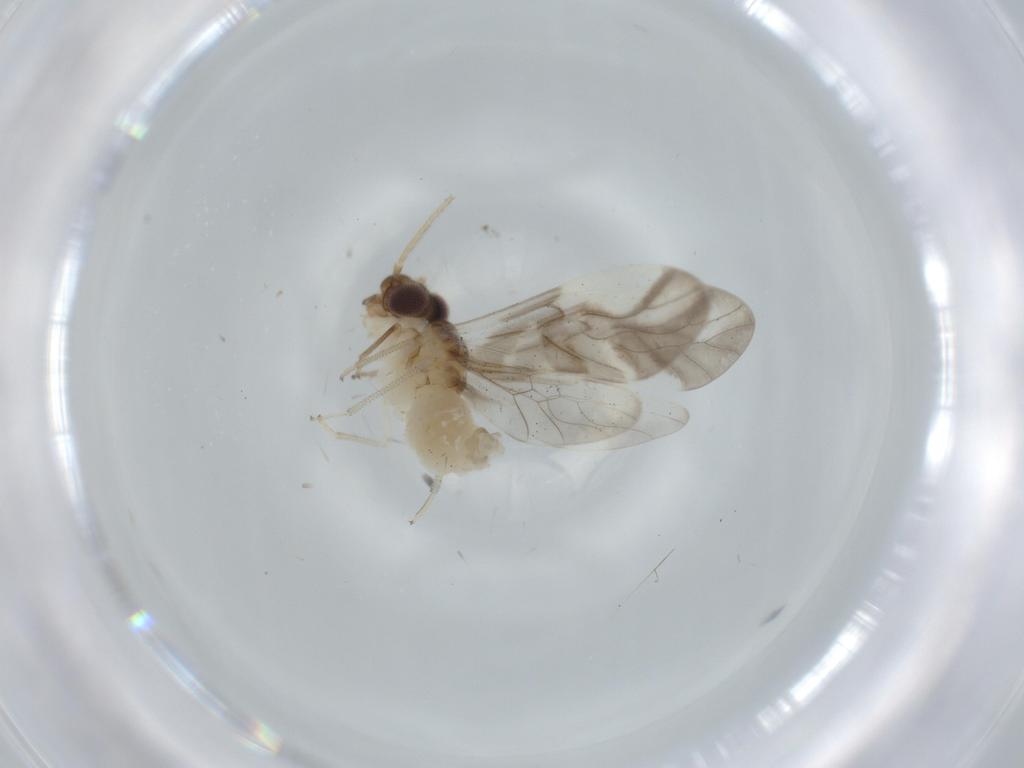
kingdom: Animalia
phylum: Arthropoda
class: Insecta
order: Psocodea
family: Caeciliusidae
